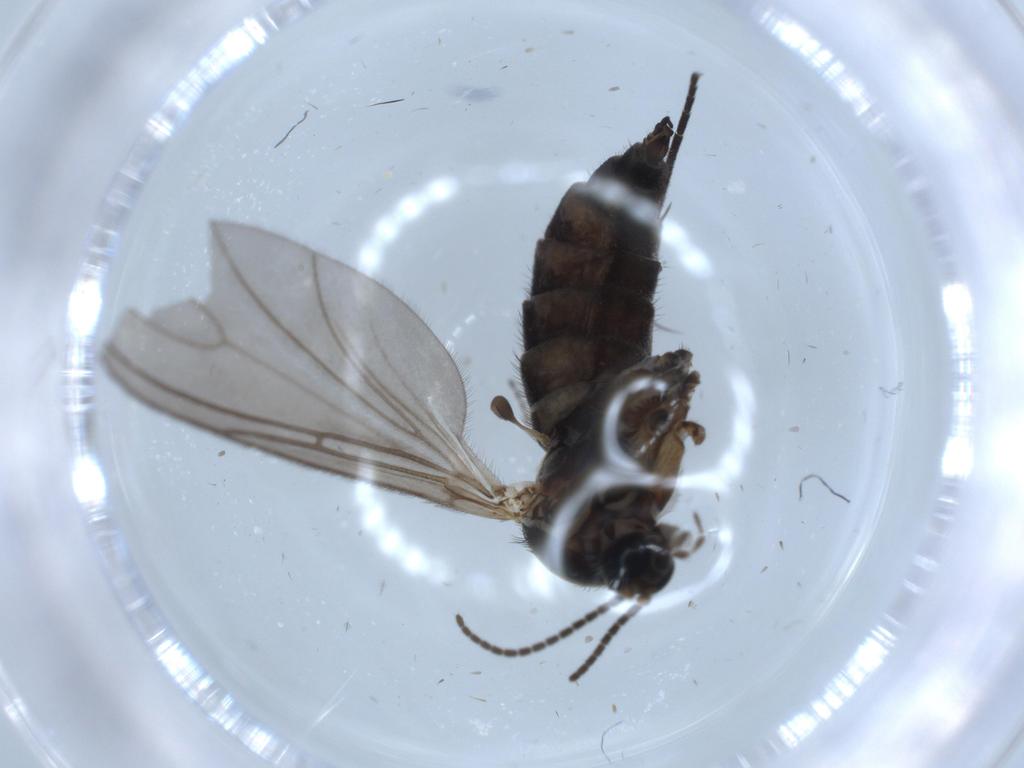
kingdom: Animalia
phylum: Arthropoda
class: Insecta
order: Diptera
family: Sciaridae
